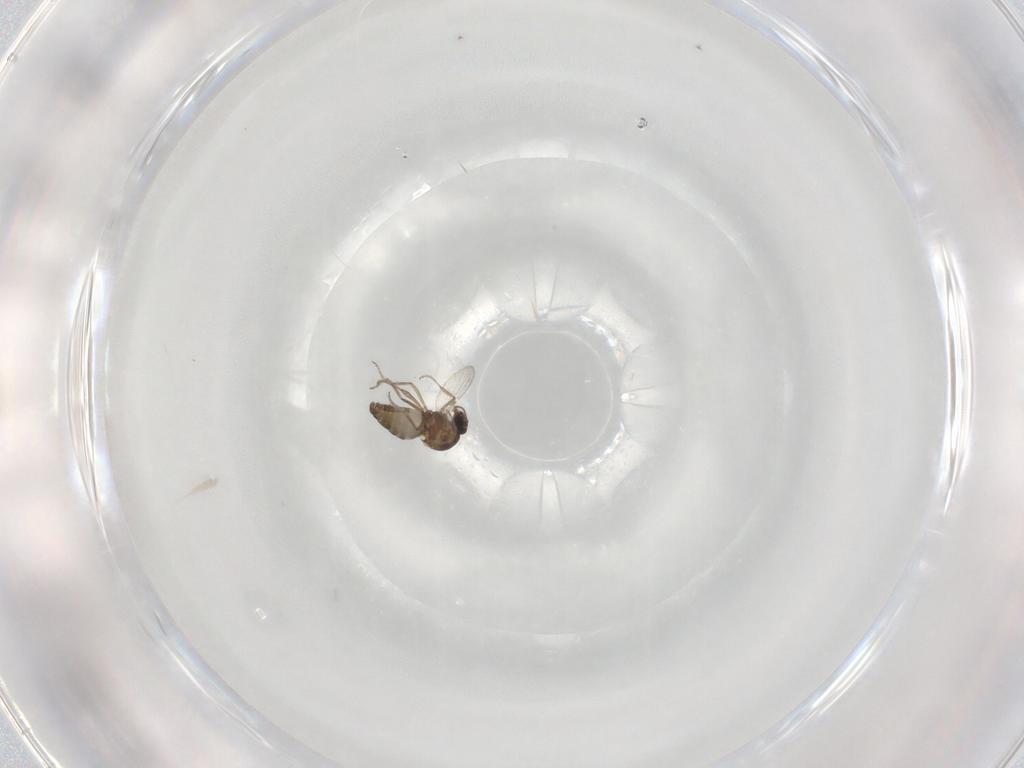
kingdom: Animalia
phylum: Arthropoda
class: Insecta
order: Diptera
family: Ceratopogonidae
